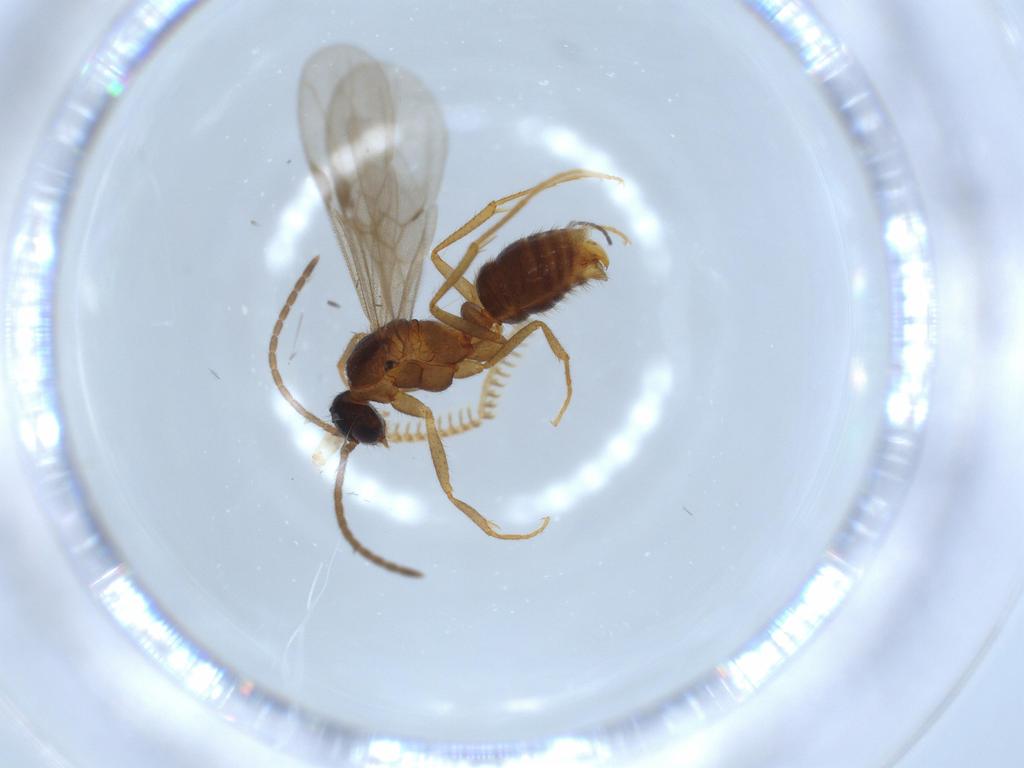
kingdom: Animalia
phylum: Arthropoda
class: Insecta
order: Hymenoptera
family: Formicidae
